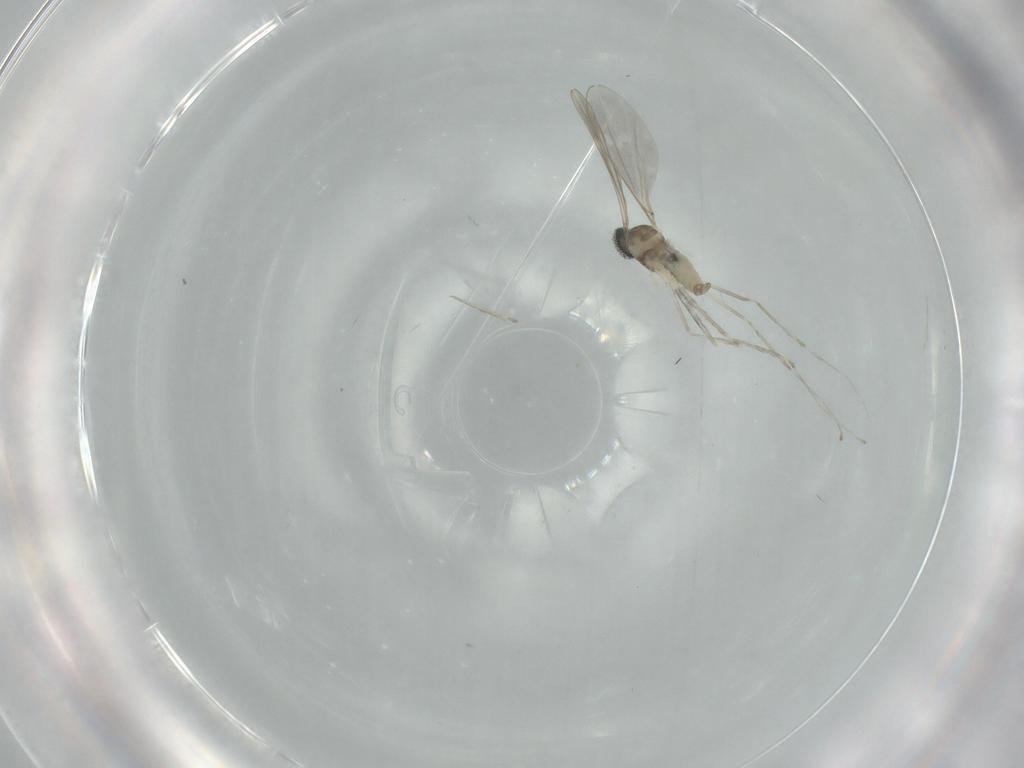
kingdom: Animalia
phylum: Arthropoda
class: Insecta
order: Diptera
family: Cecidomyiidae
